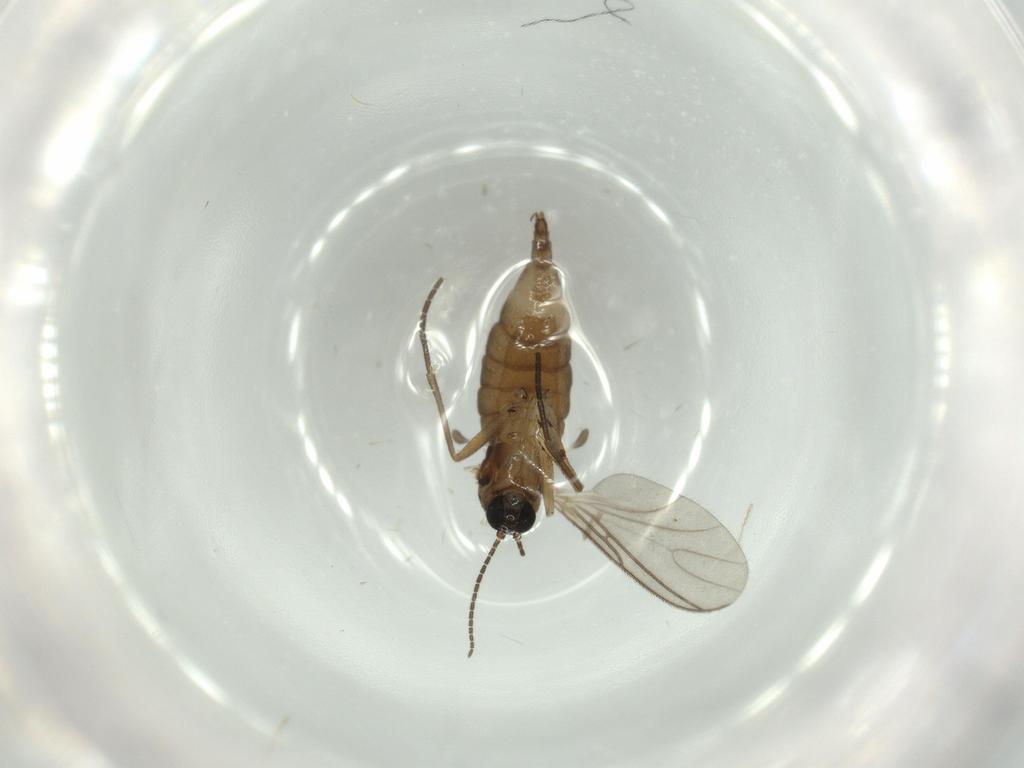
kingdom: Animalia
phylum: Arthropoda
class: Insecta
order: Diptera
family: Sciaridae
